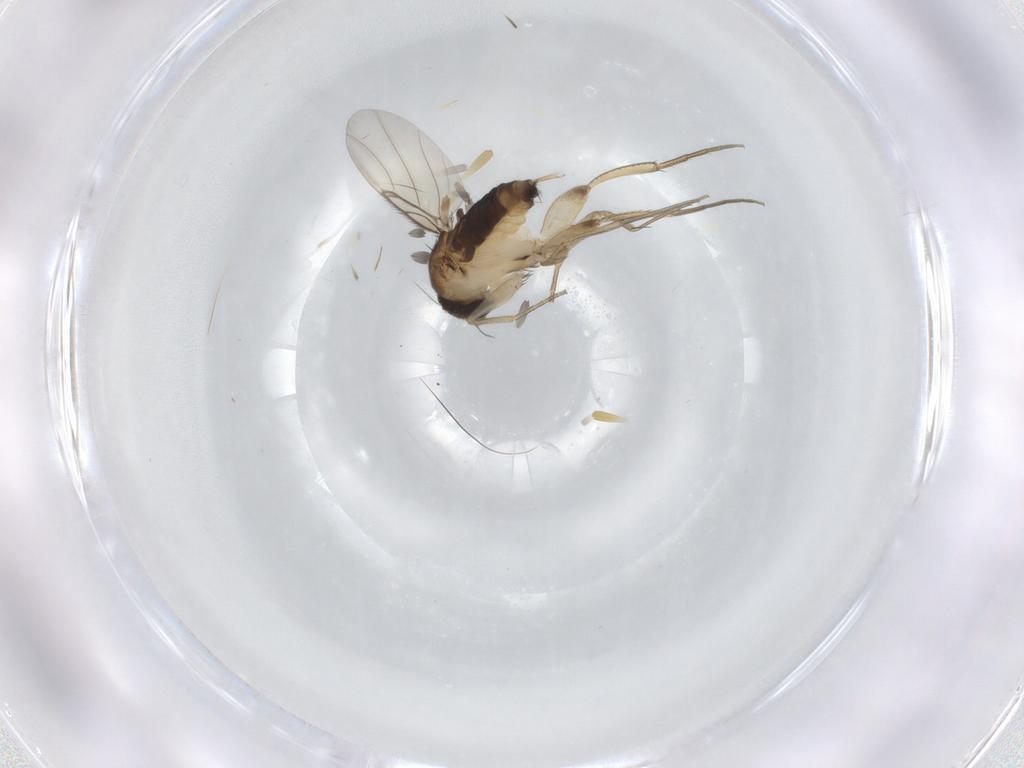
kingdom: Animalia
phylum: Arthropoda
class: Insecta
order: Diptera
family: Phoridae
